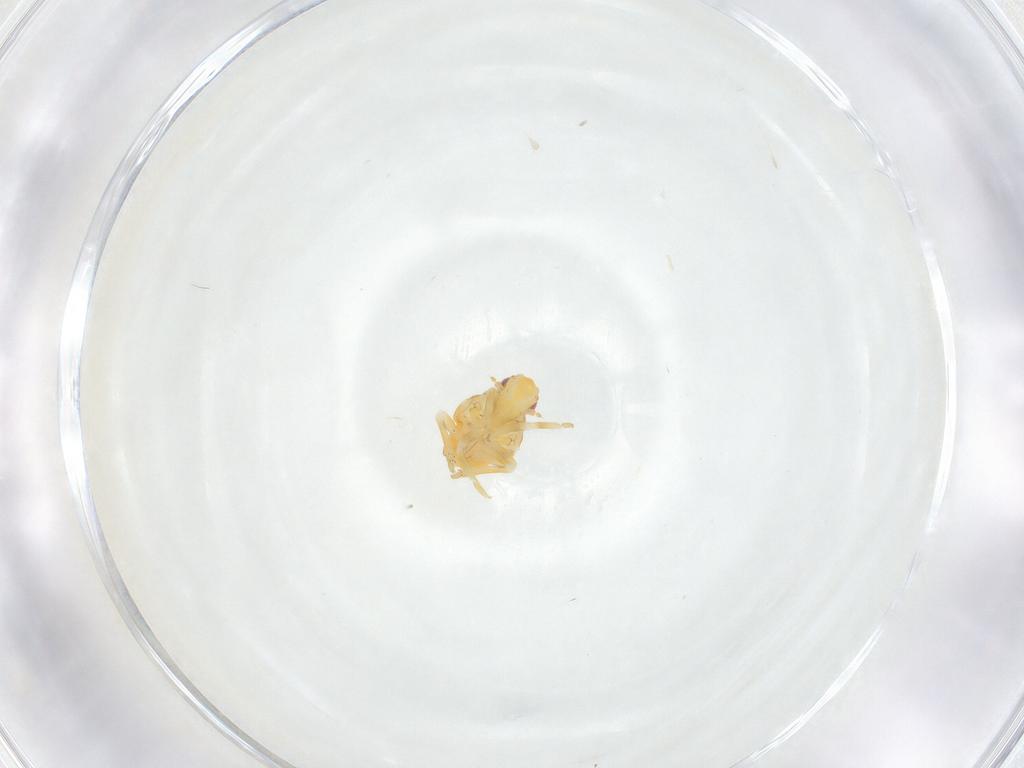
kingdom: Animalia
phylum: Arthropoda
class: Insecta
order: Hemiptera
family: Flatidae
